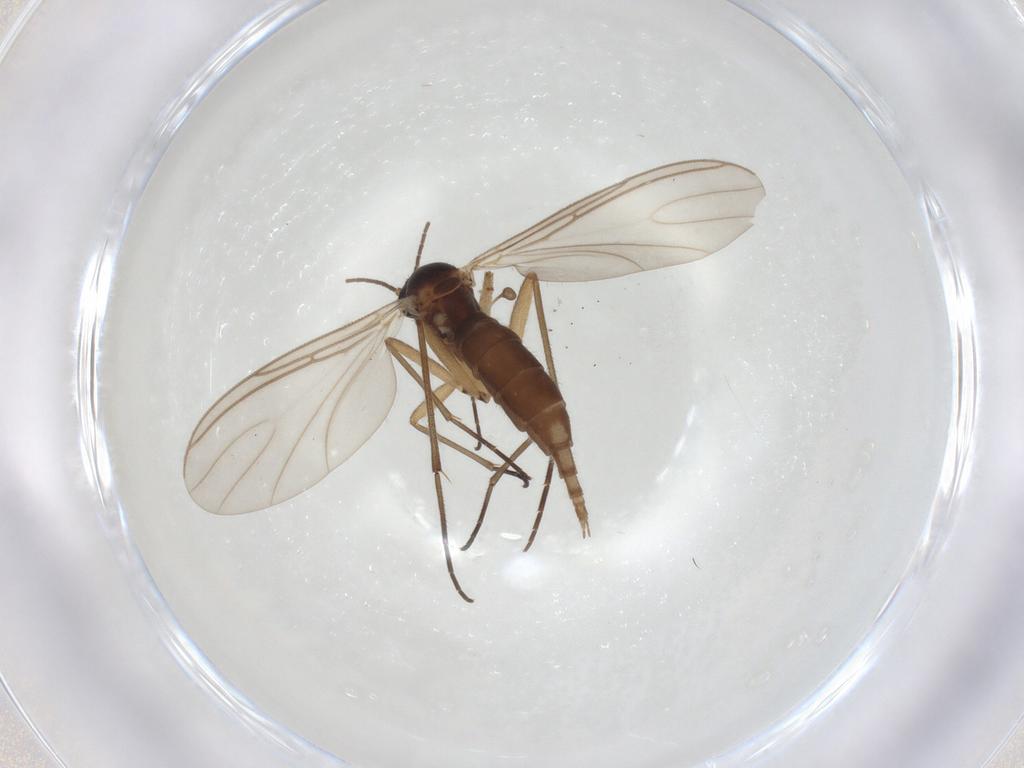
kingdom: Animalia
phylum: Arthropoda
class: Insecta
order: Diptera
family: Sciaridae
